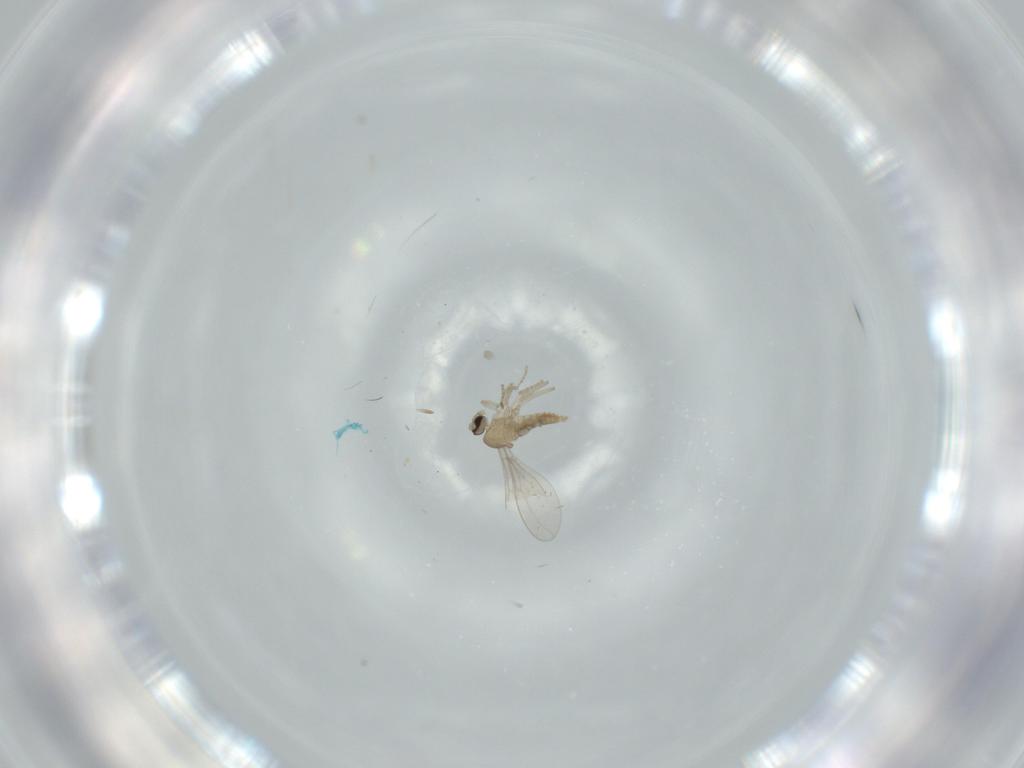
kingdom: Animalia
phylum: Arthropoda
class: Insecta
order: Diptera
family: Cecidomyiidae
